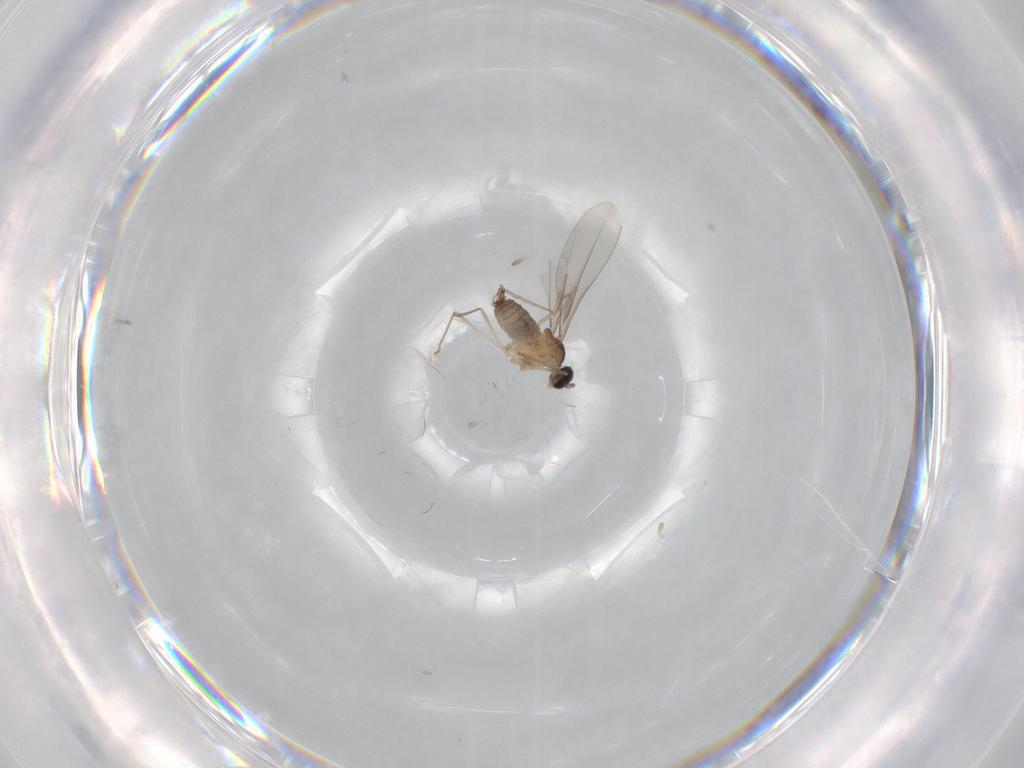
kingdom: Animalia
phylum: Arthropoda
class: Insecta
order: Diptera
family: Cecidomyiidae
